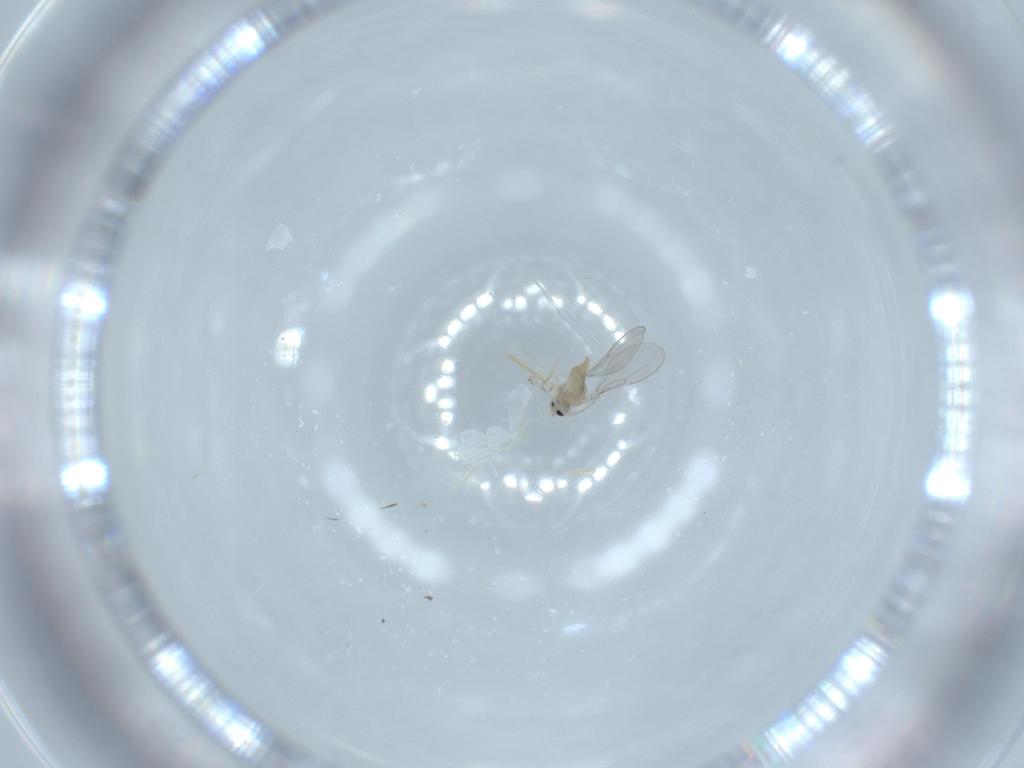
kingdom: Animalia
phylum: Arthropoda
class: Insecta
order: Diptera
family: Cecidomyiidae
